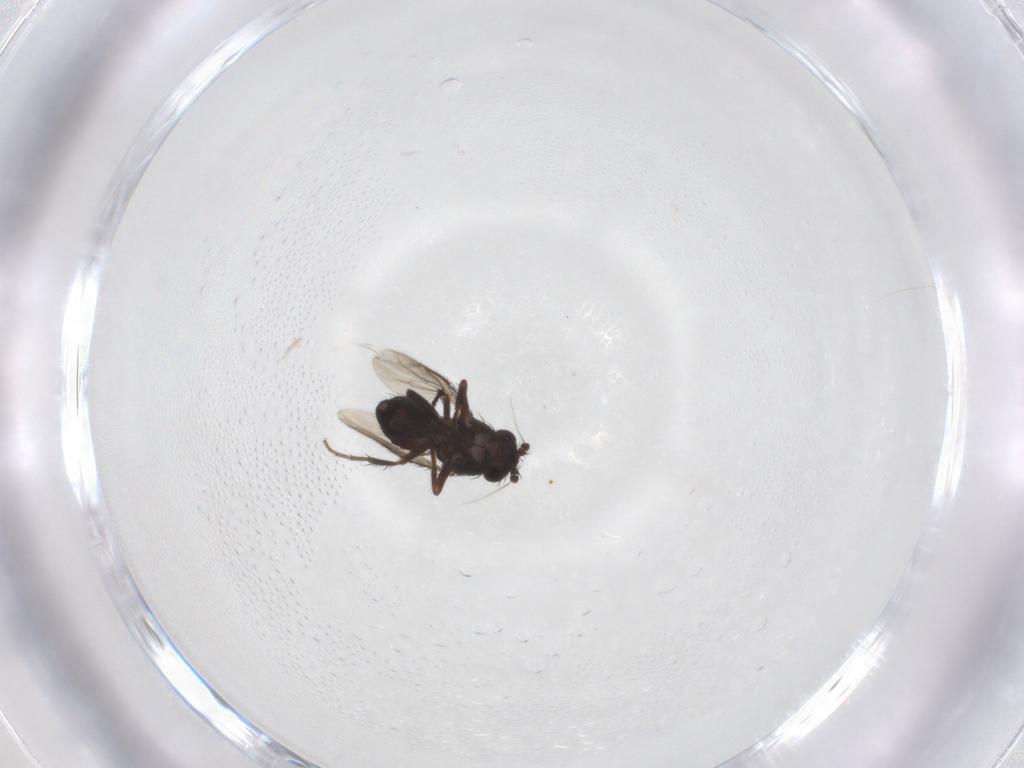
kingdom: Animalia
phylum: Arthropoda
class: Insecta
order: Diptera
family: Sphaeroceridae
